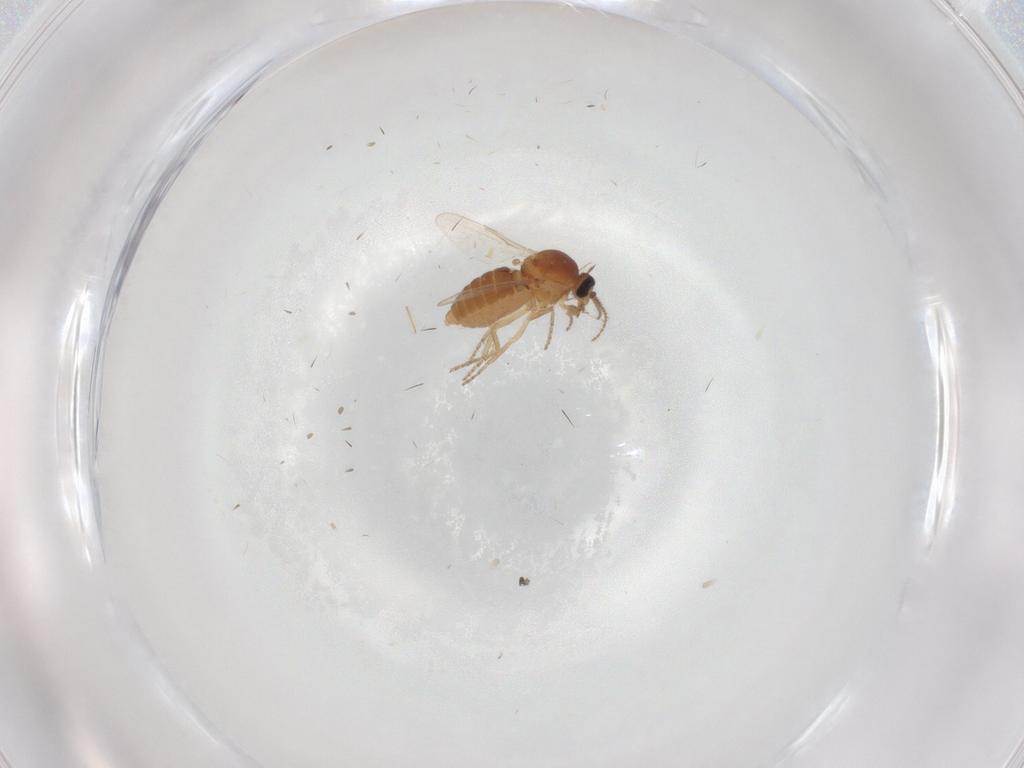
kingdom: Animalia
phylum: Arthropoda
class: Insecta
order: Diptera
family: Ceratopogonidae
